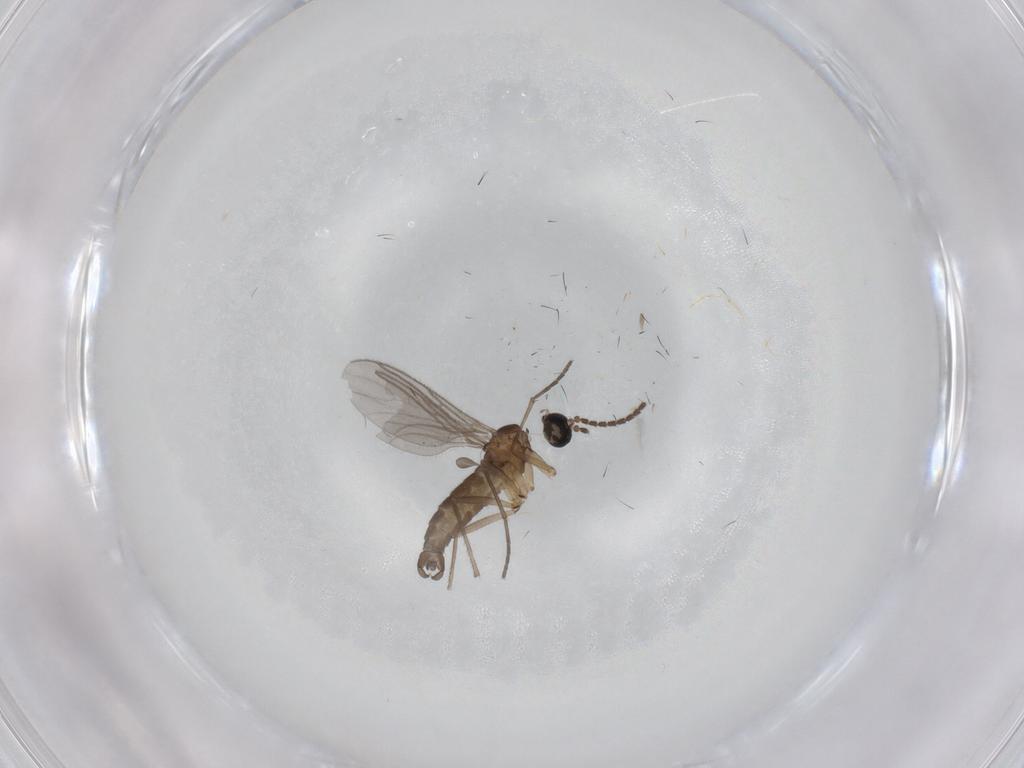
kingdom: Animalia
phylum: Arthropoda
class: Insecta
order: Diptera
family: Sciaridae
